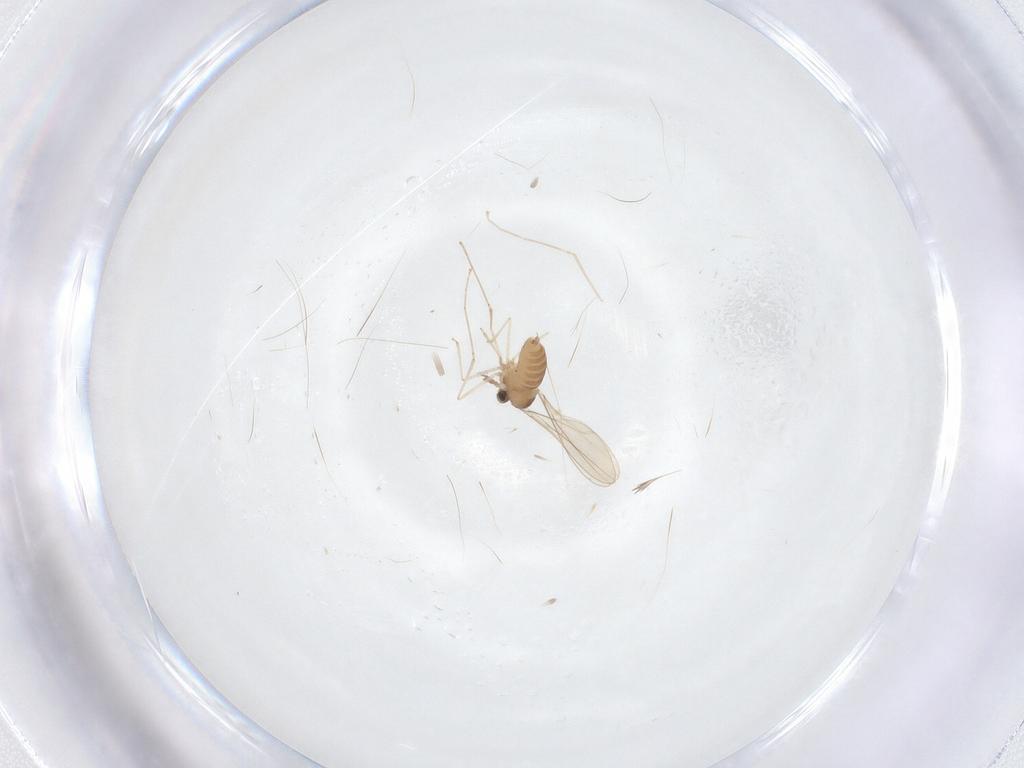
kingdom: Animalia
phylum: Arthropoda
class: Insecta
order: Diptera
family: Cecidomyiidae
